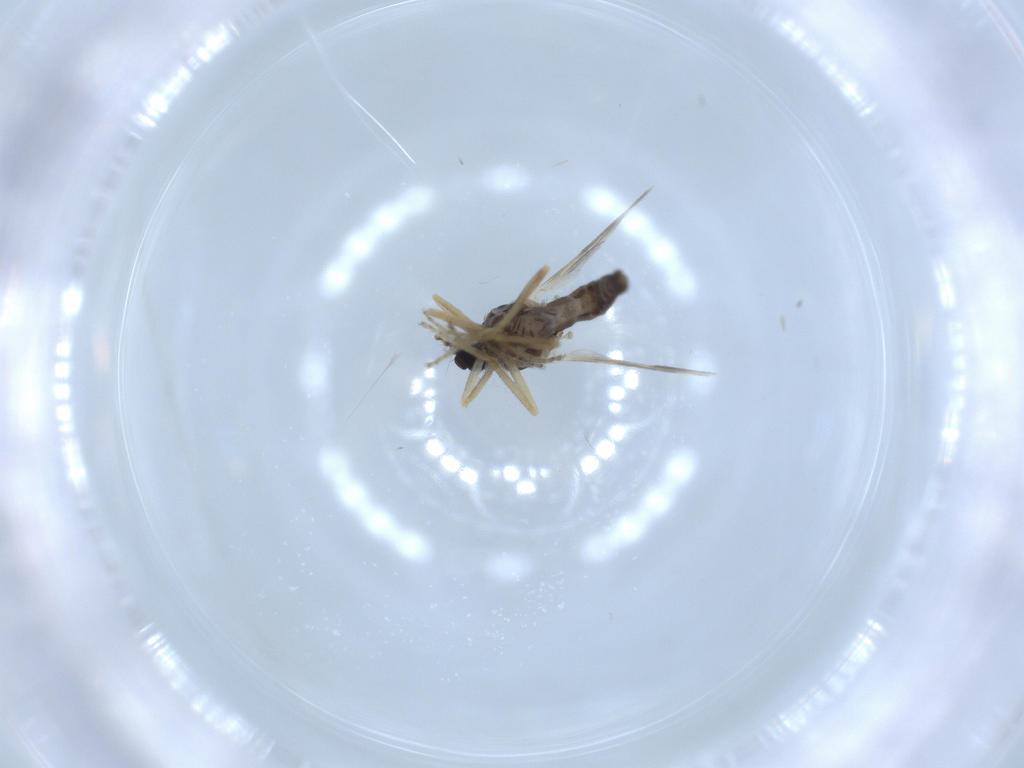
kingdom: Animalia
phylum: Arthropoda
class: Insecta
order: Diptera
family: Ceratopogonidae
